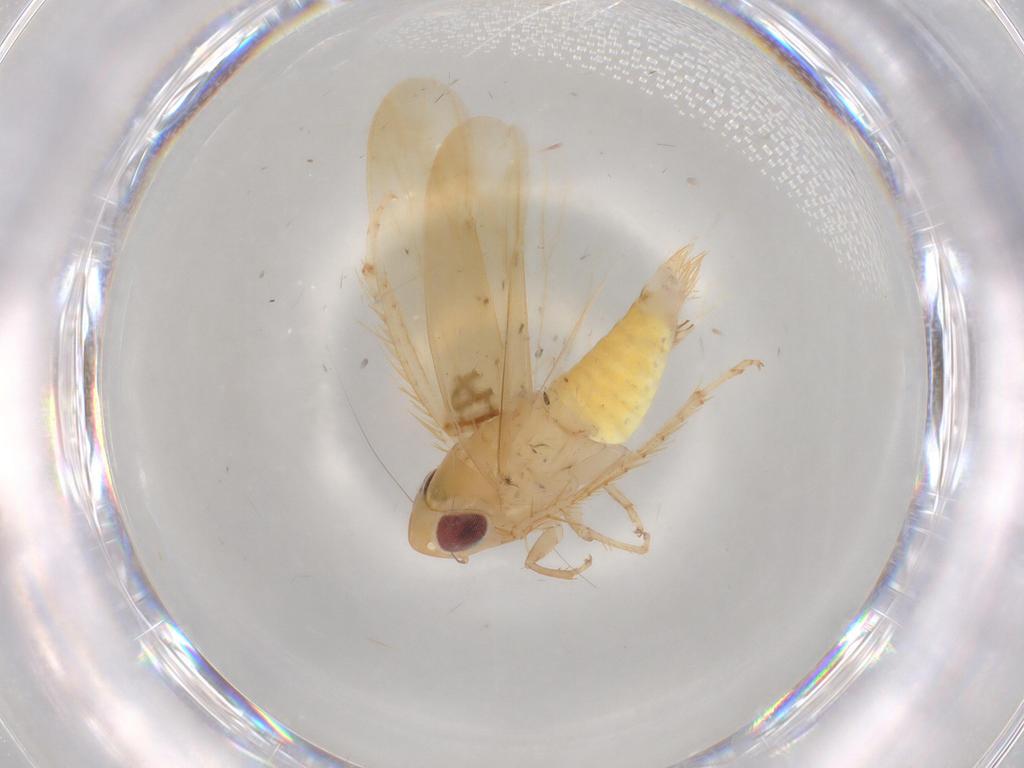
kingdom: Animalia
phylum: Arthropoda
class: Insecta
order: Hemiptera
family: Cicadellidae
